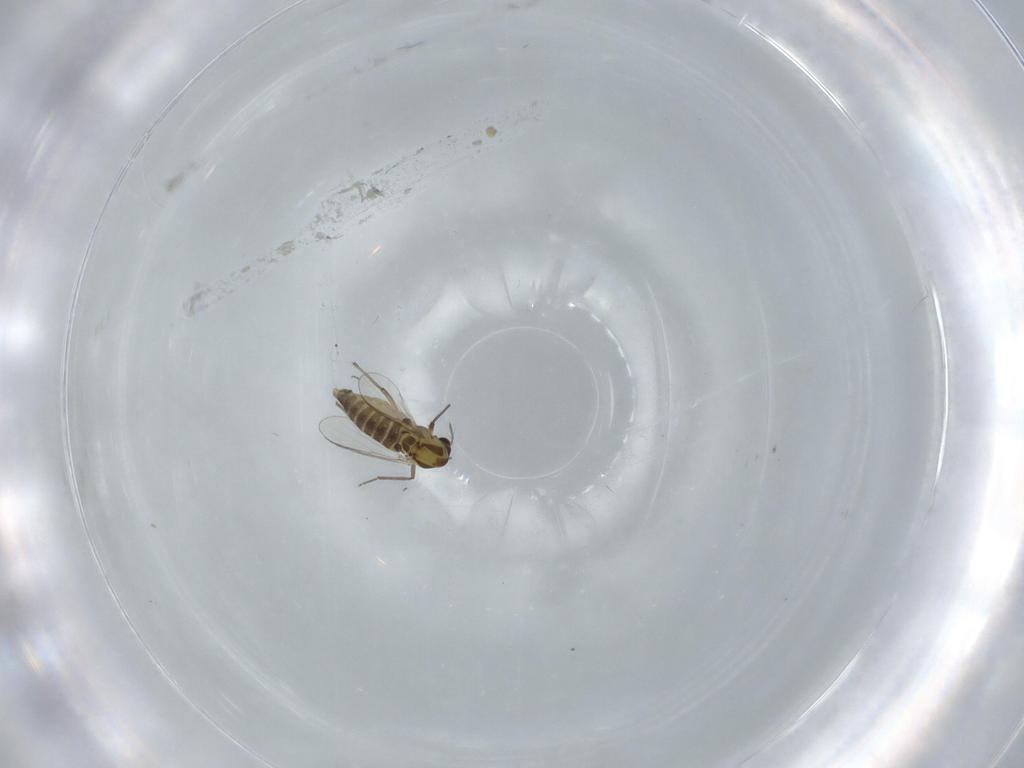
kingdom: Animalia
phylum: Arthropoda
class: Insecta
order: Diptera
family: Chironomidae
